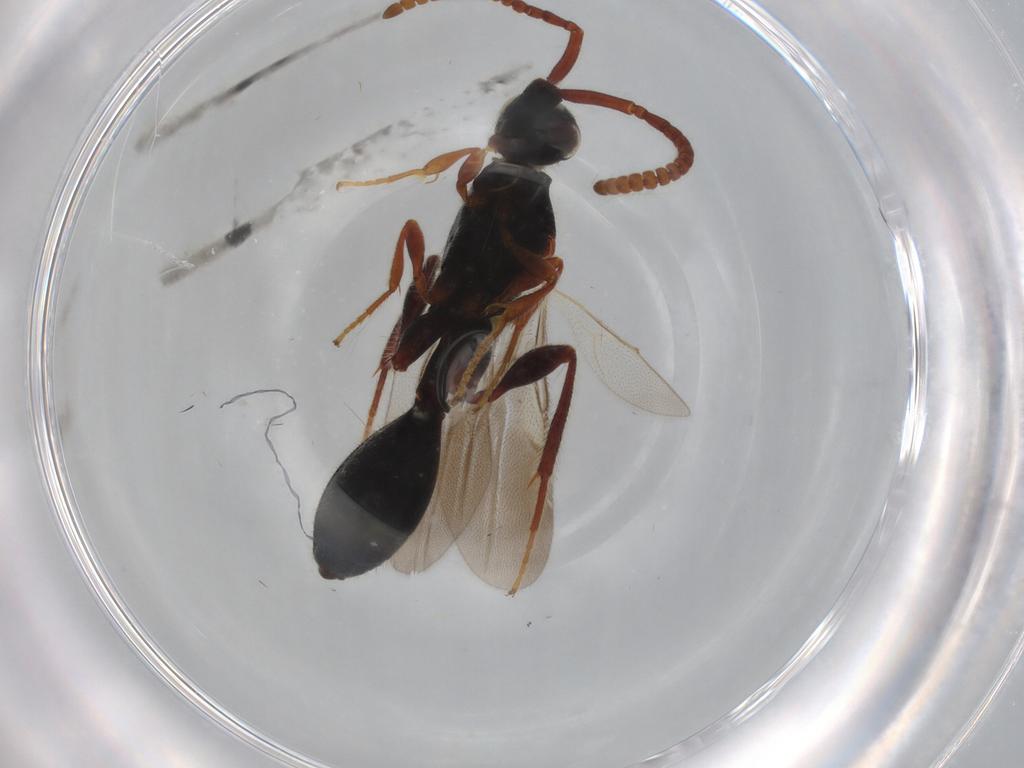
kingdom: Animalia
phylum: Arthropoda
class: Insecta
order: Hymenoptera
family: Diapriidae
